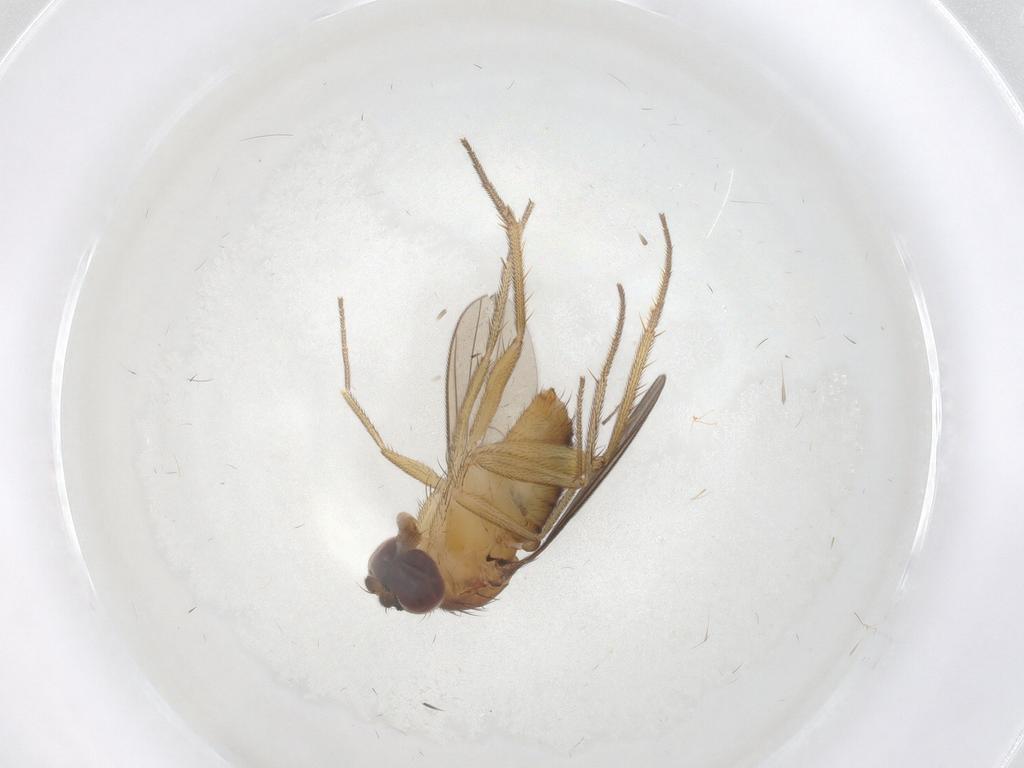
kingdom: Animalia
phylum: Arthropoda
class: Insecta
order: Diptera
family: Dolichopodidae
